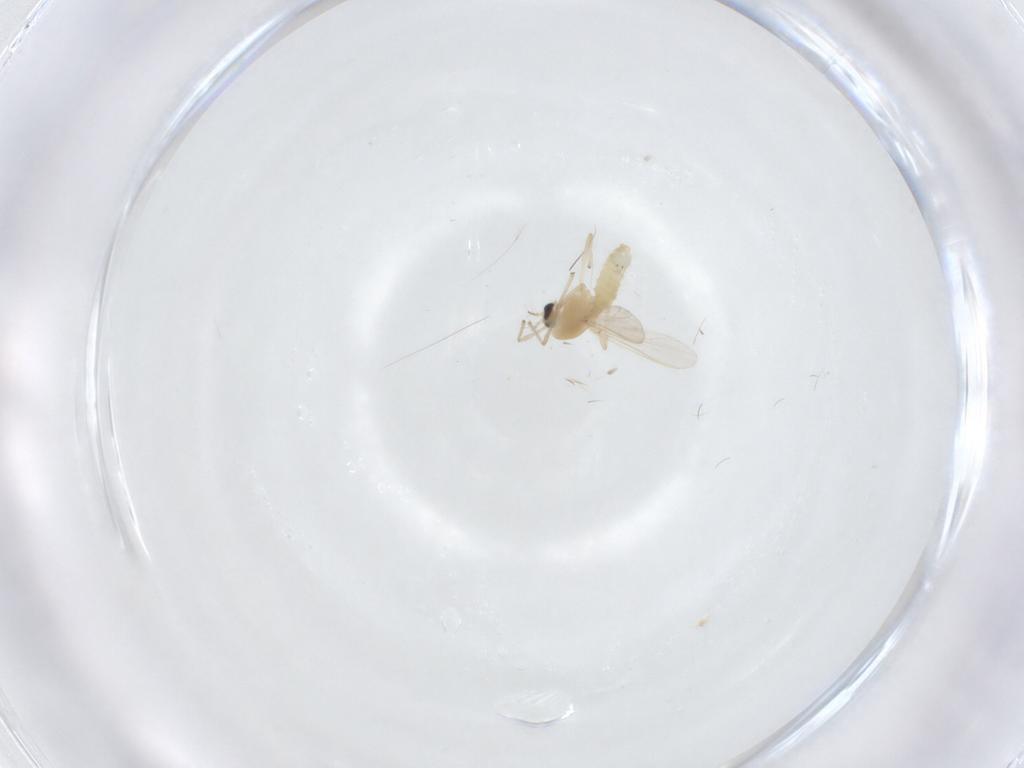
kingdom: Animalia
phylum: Arthropoda
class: Insecta
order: Diptera
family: Chironomidae
